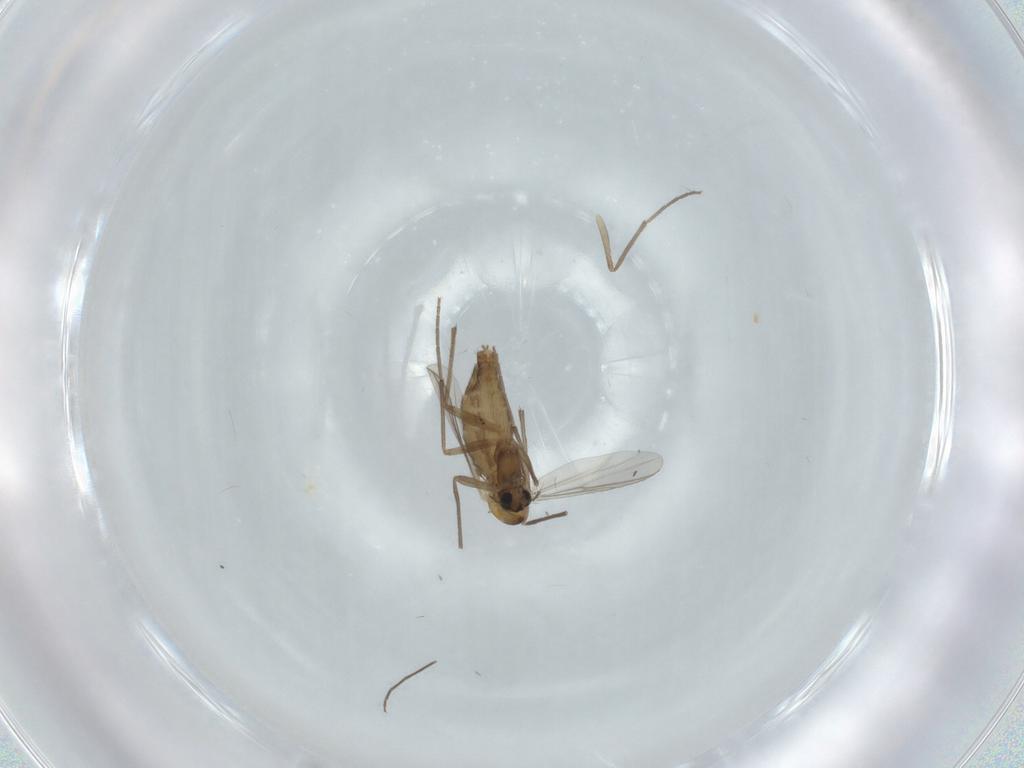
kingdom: Animalia
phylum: Arthropoda
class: Insecta
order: Diptera
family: Chironomidae
